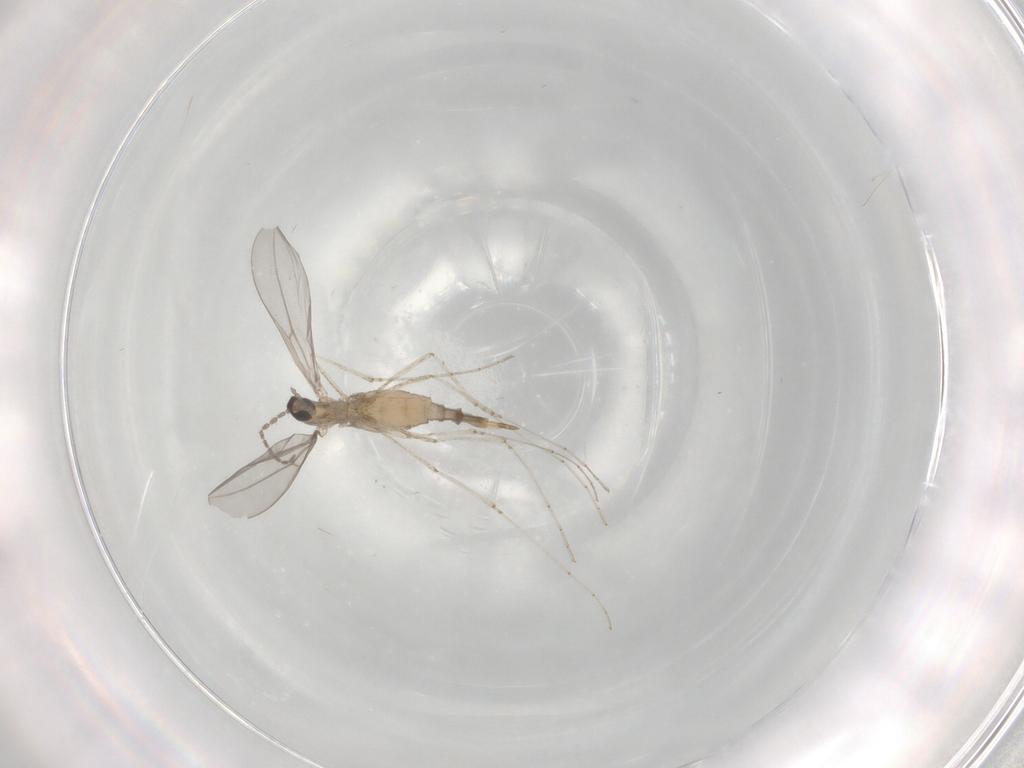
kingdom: Animalia
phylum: Arthropoda
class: Insecta
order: Diptera
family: Cecidomyiidae
